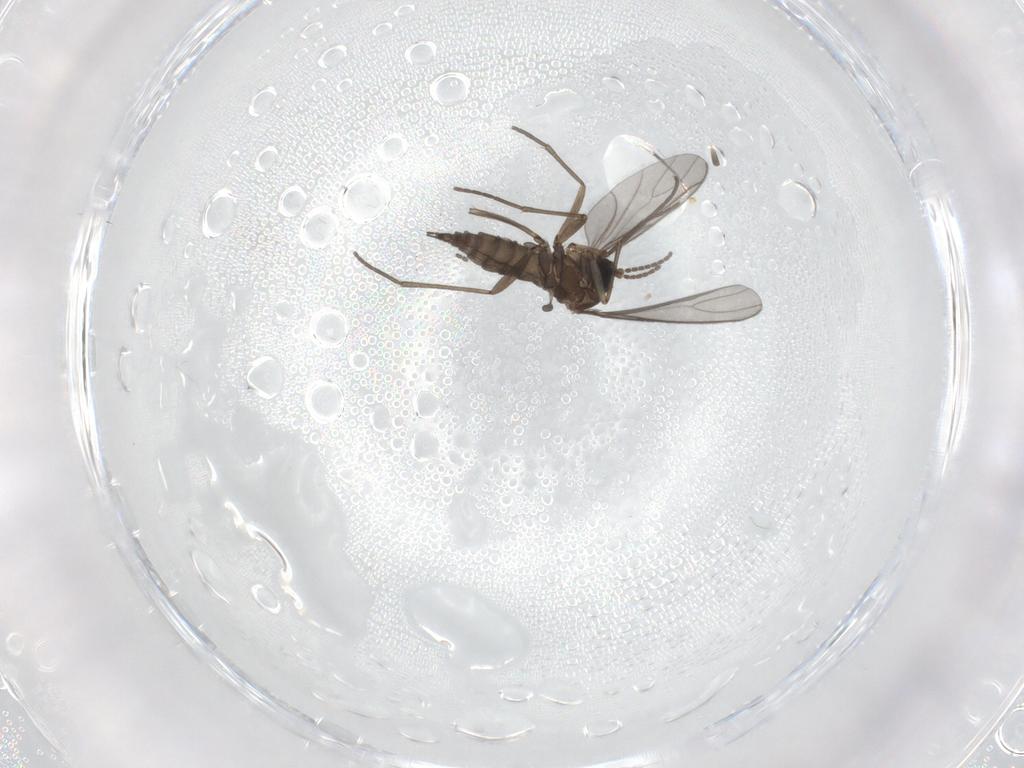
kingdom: Animalia
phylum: Arthropoda
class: Insecta
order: Diptera
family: Sciaridae
